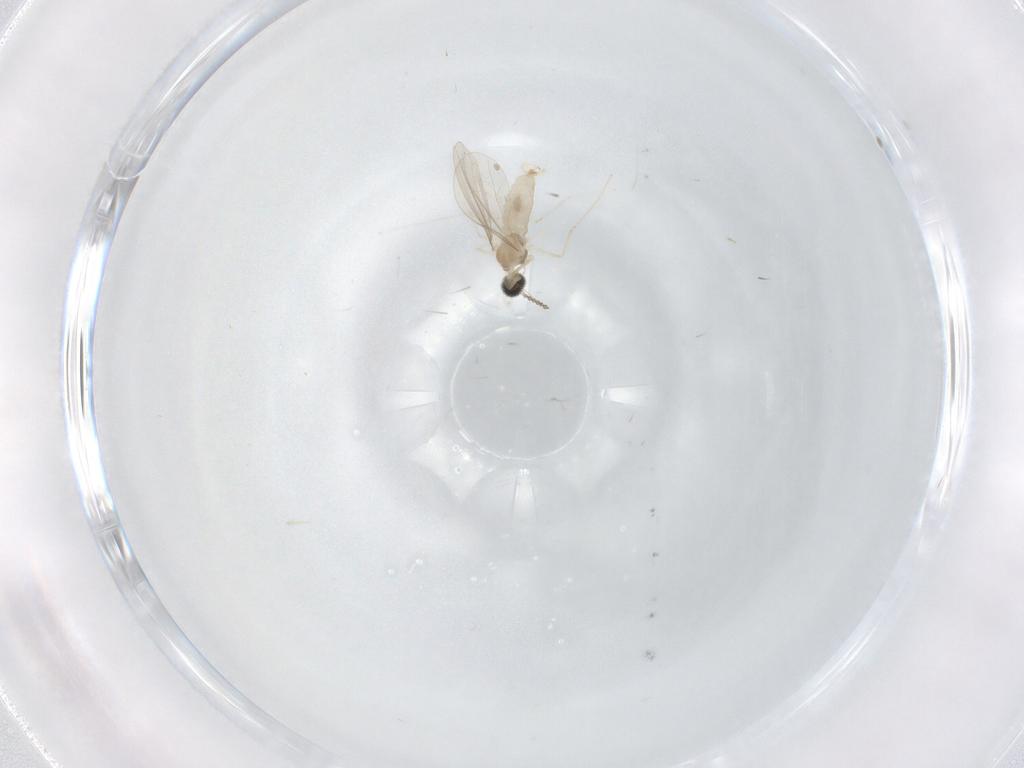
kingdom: Animalia
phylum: Arthropoda
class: Insecta
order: Diptera
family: Cecidomyiidae
